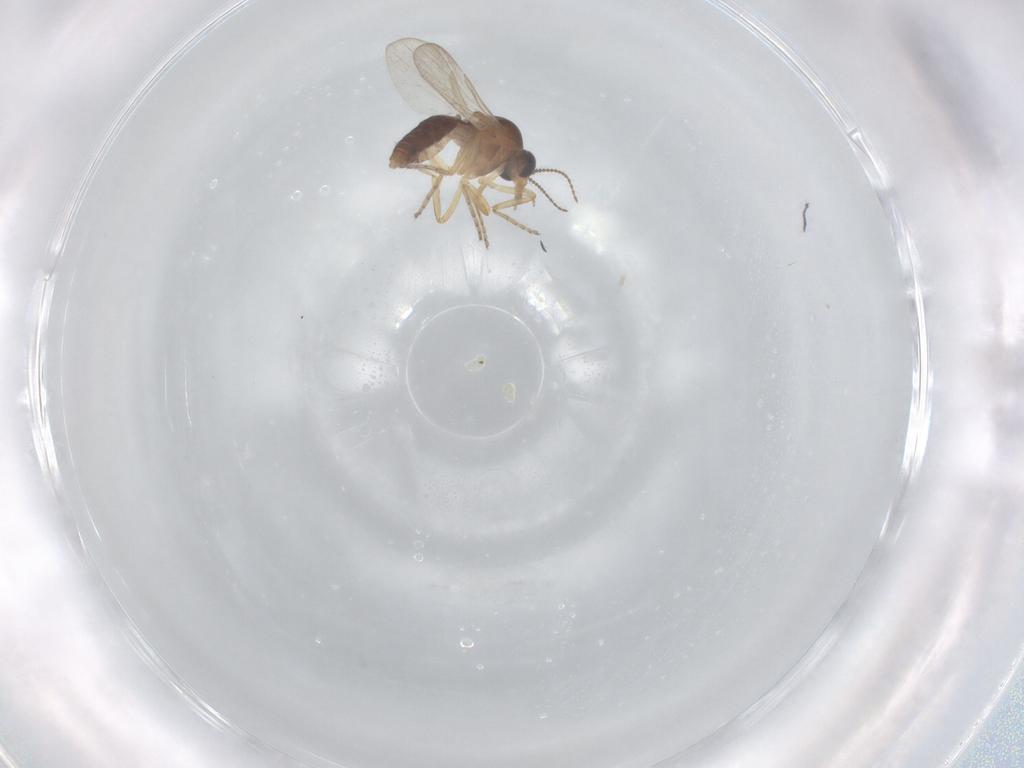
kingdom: Animalia
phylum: Arthropoda
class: Insecta
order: Diptera
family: Ceratopogonidae
